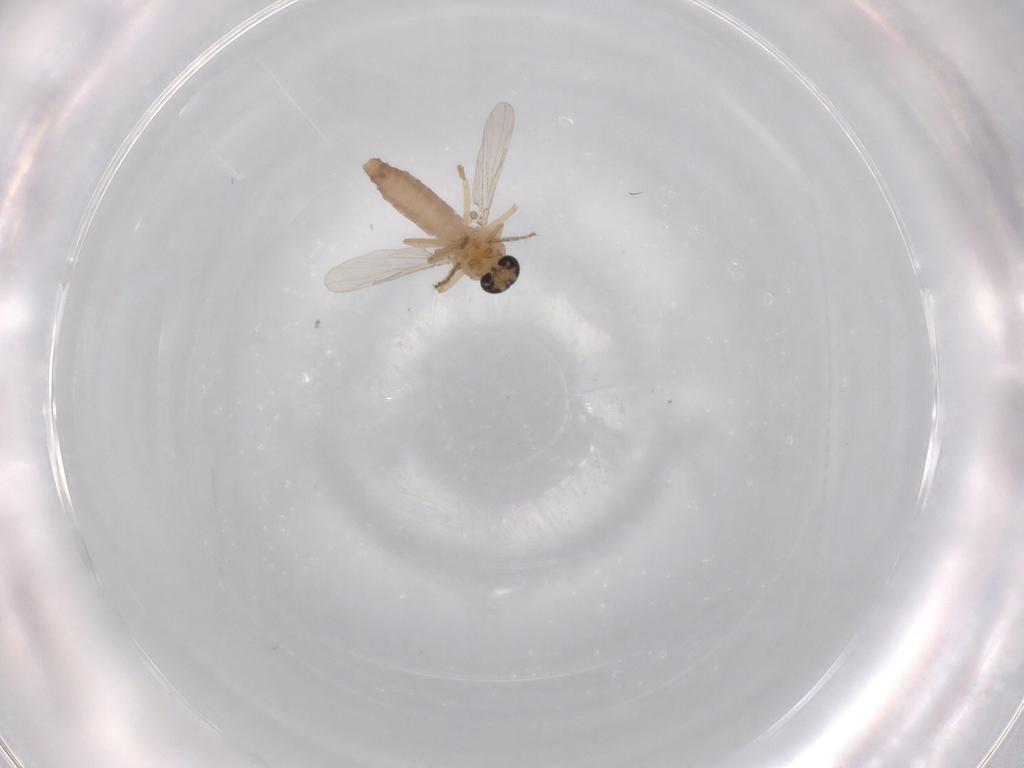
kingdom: Animalia
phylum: Arthropoda
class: Insecta
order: Diptera
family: Ceratopogonidae
